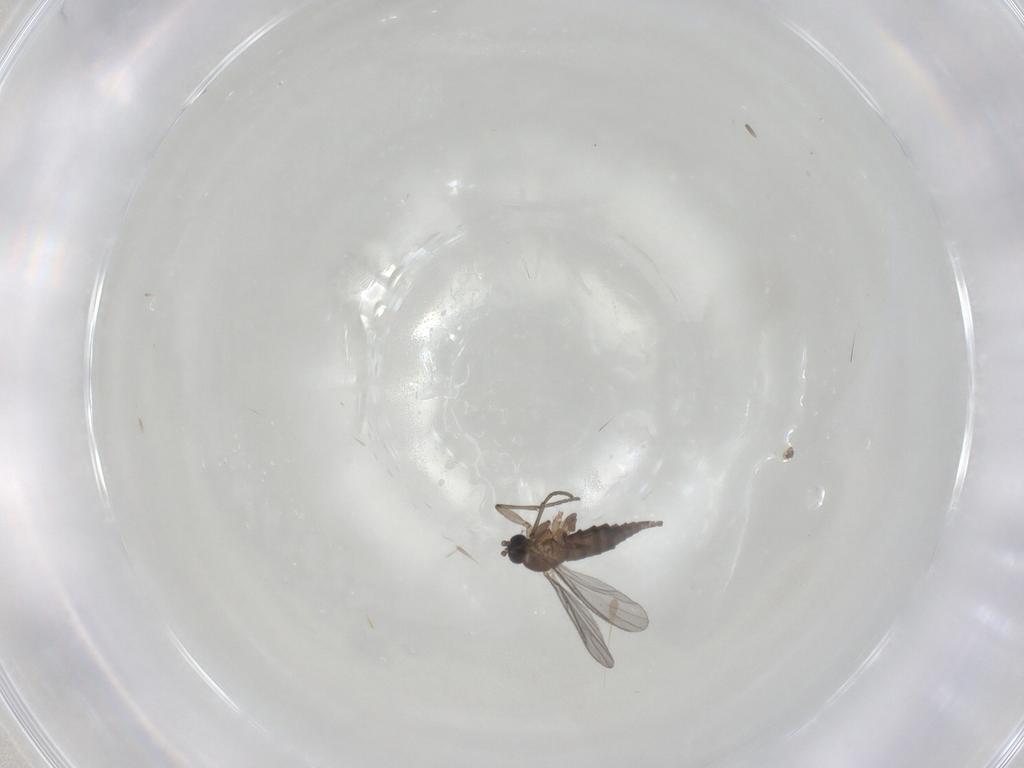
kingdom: Animalia
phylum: Arthropoda
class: Insecta
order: Diptera
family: Sciaridae
